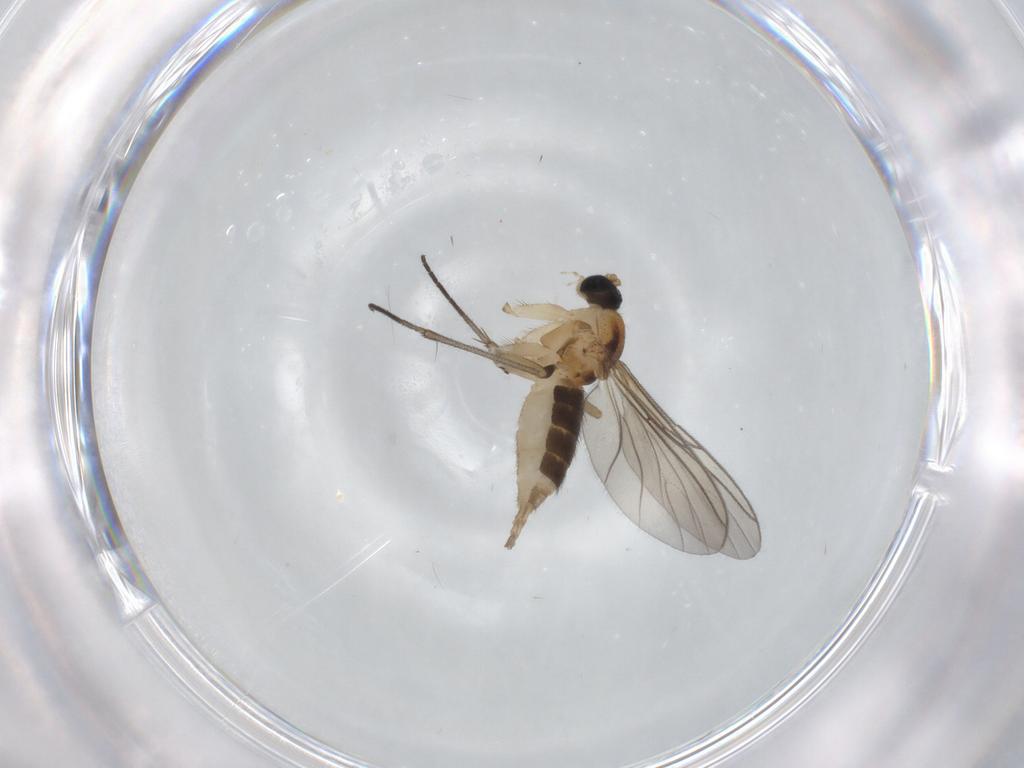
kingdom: Animalia
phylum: Arthropoda
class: Insecta
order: Diptera
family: Sciaridae
